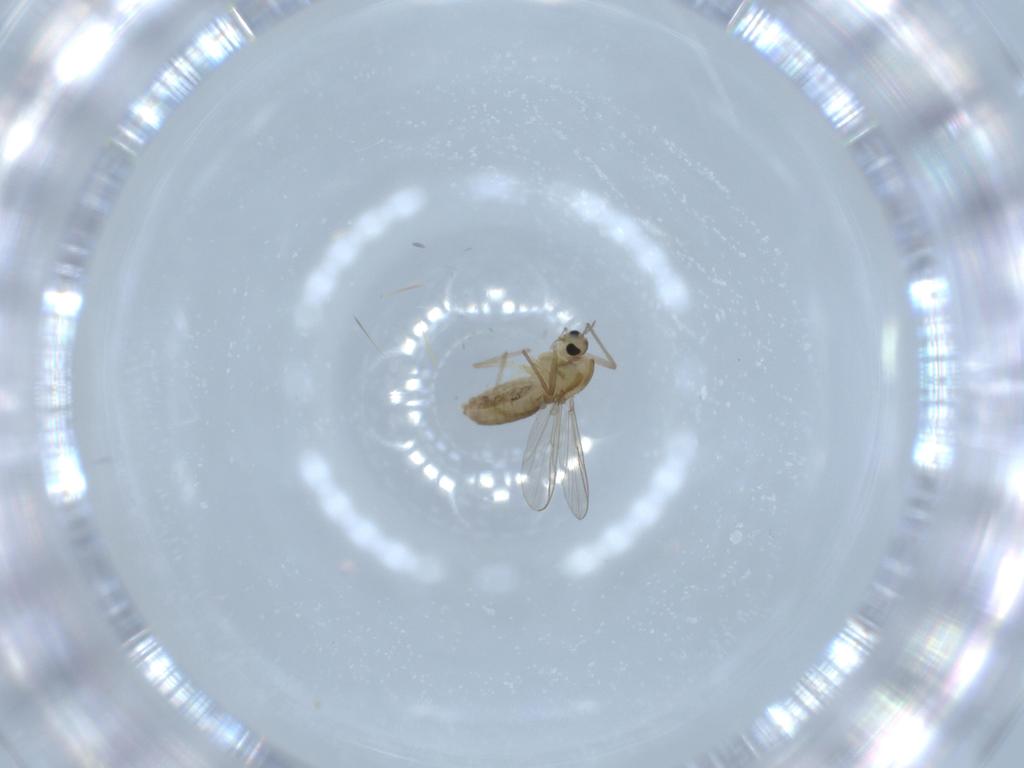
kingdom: Animalia
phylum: Arthropoda
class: Insecta
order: Diptera
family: Chironomidae
